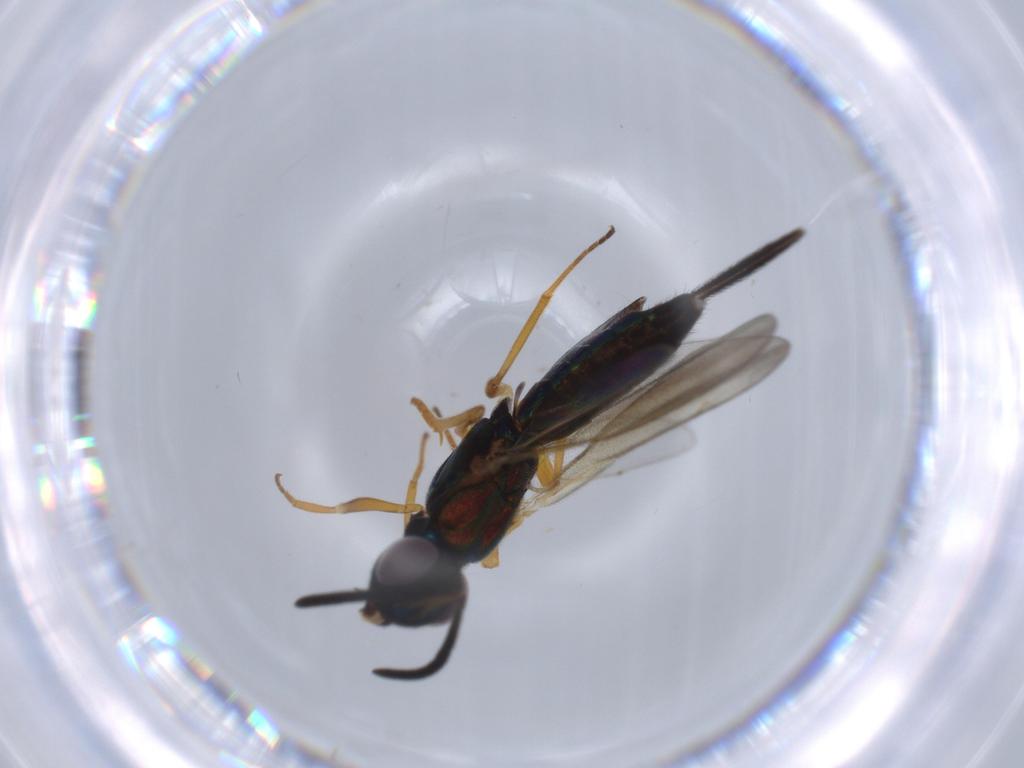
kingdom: Animalia
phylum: Arthropoda
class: Insecta
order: Hymenoptera
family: Eupelmidae
